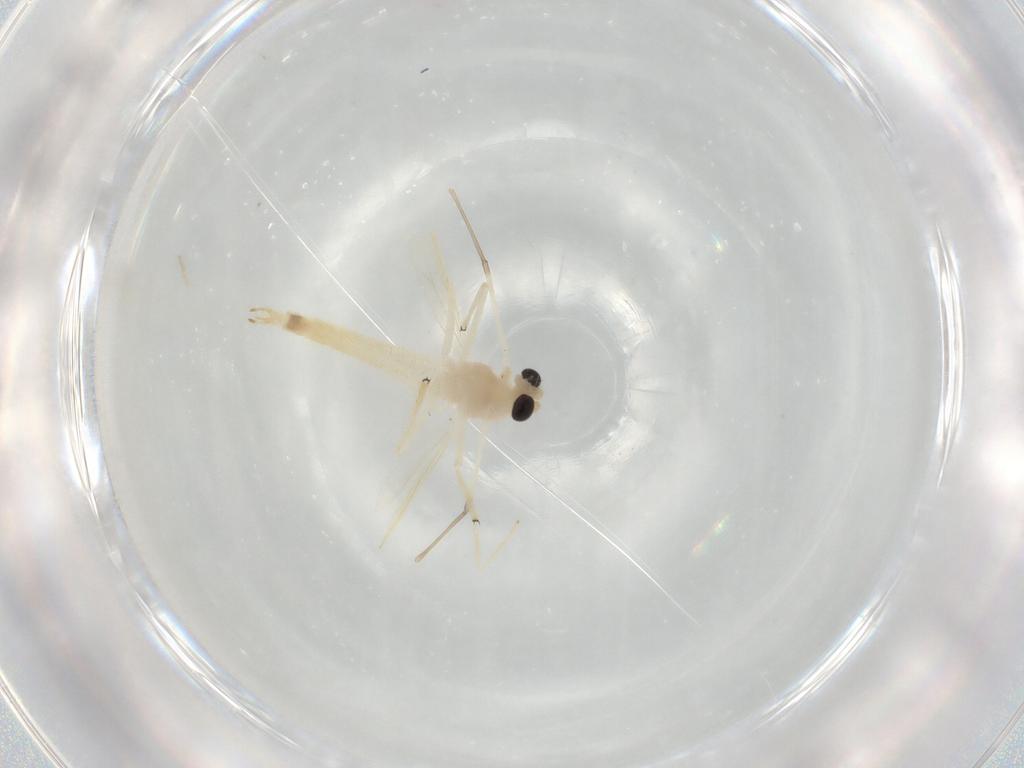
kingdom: Animalia
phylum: Arthropoda
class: Insecta
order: Diptera
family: Chironomidae
